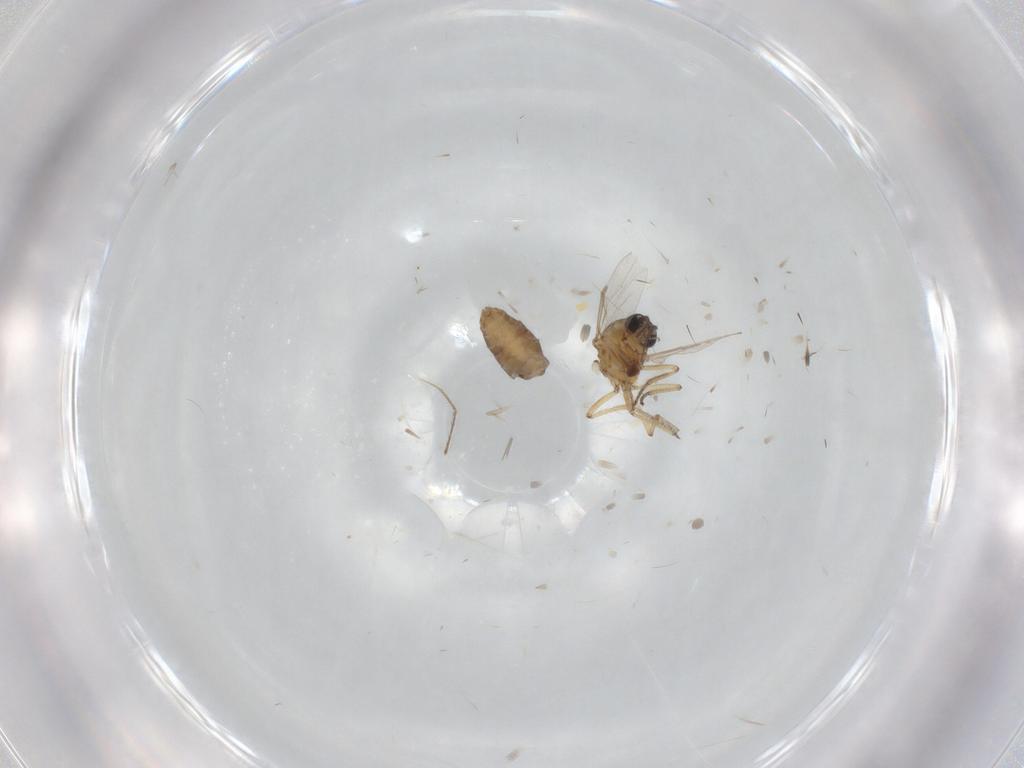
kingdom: Animalia
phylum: Arthropoda
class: Insecta
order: Diptera
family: Ceratopogonidae
